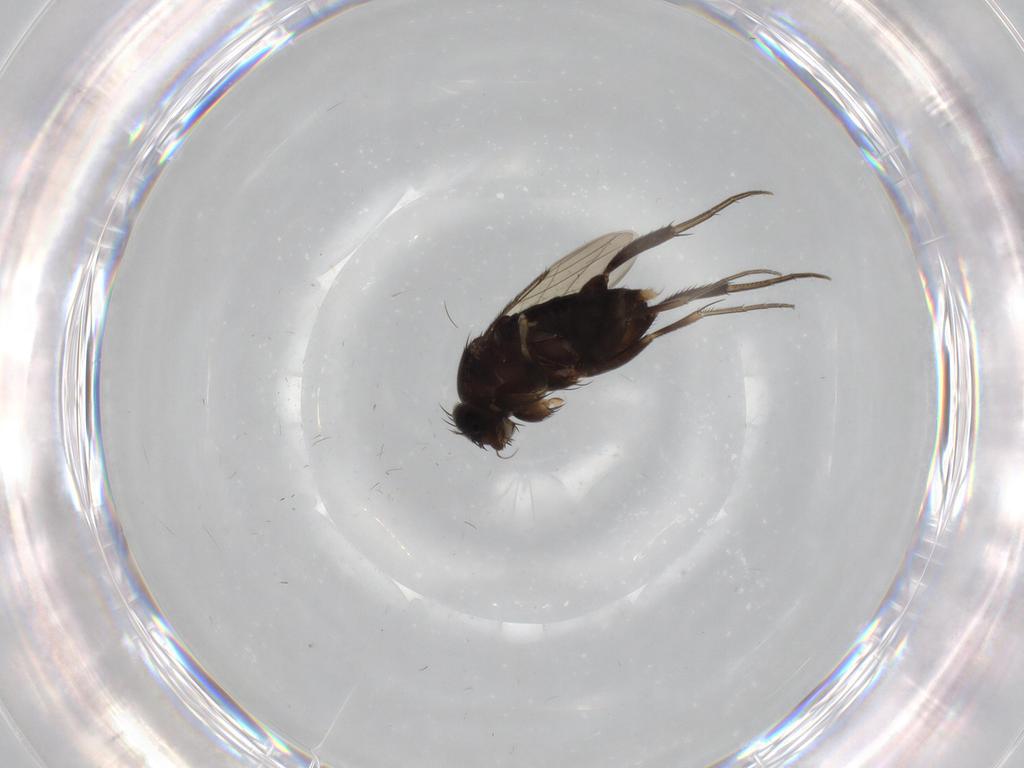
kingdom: Animalia
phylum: Arthropoda
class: Insecta
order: Diptera
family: Phoridae
